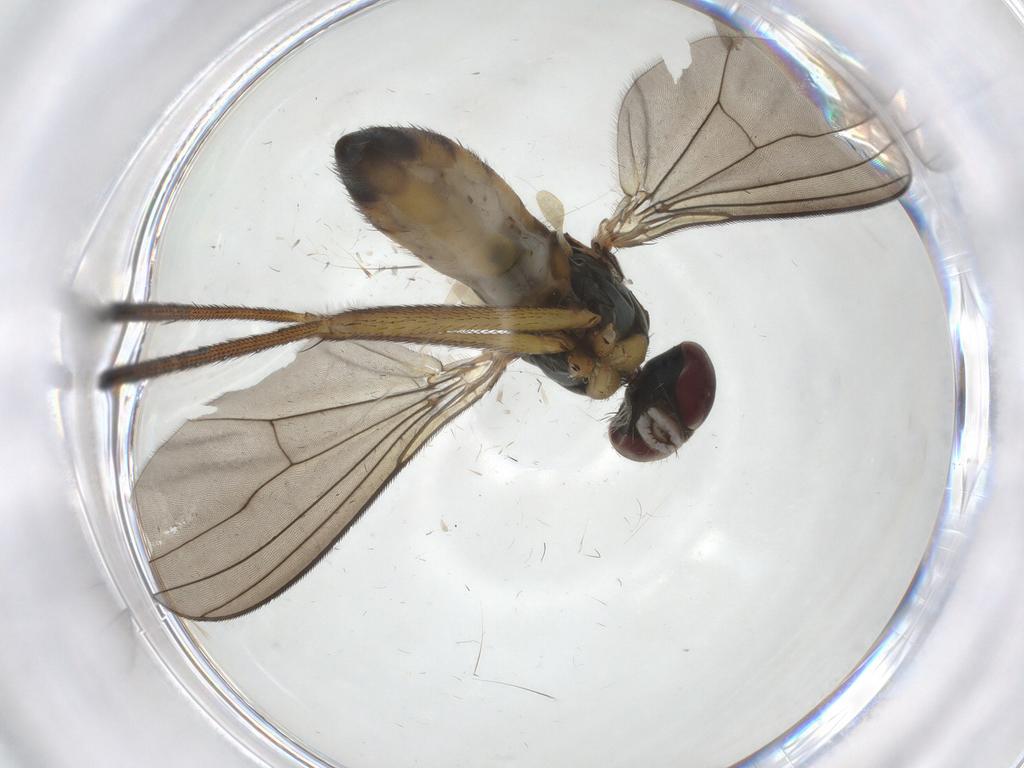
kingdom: Animalia
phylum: Arthropoda
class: Insecta
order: Diptera
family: Dolichopodidae
